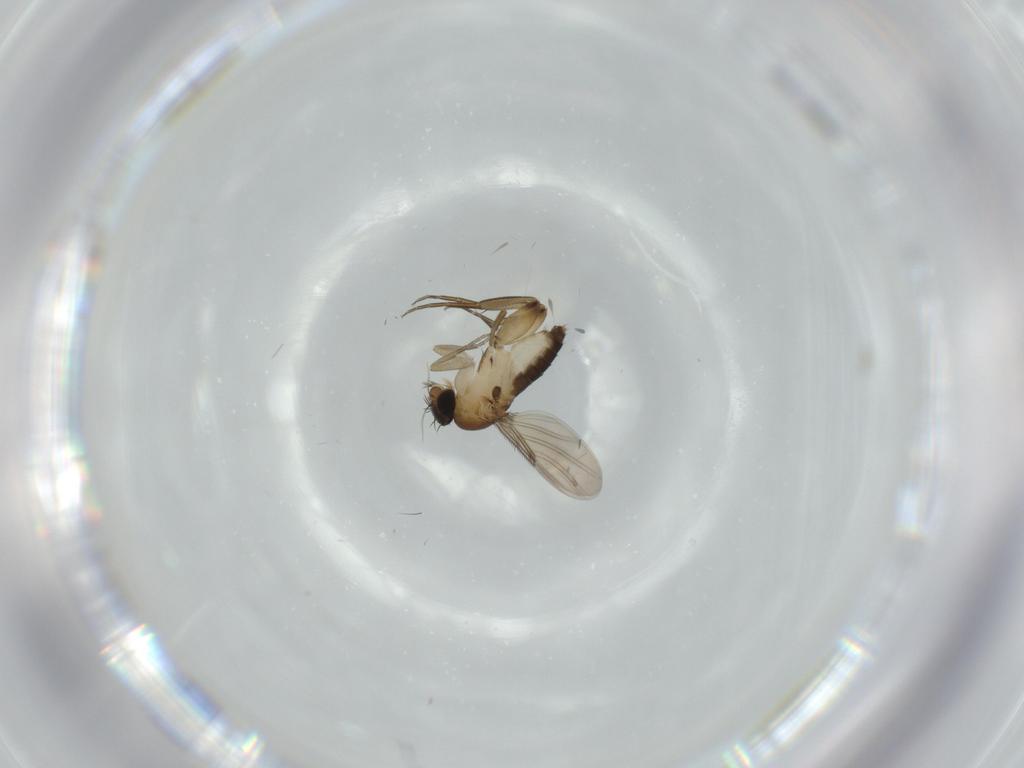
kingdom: Animalia
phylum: Arthropoda
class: Insecta
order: Diptera
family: Phoridae
